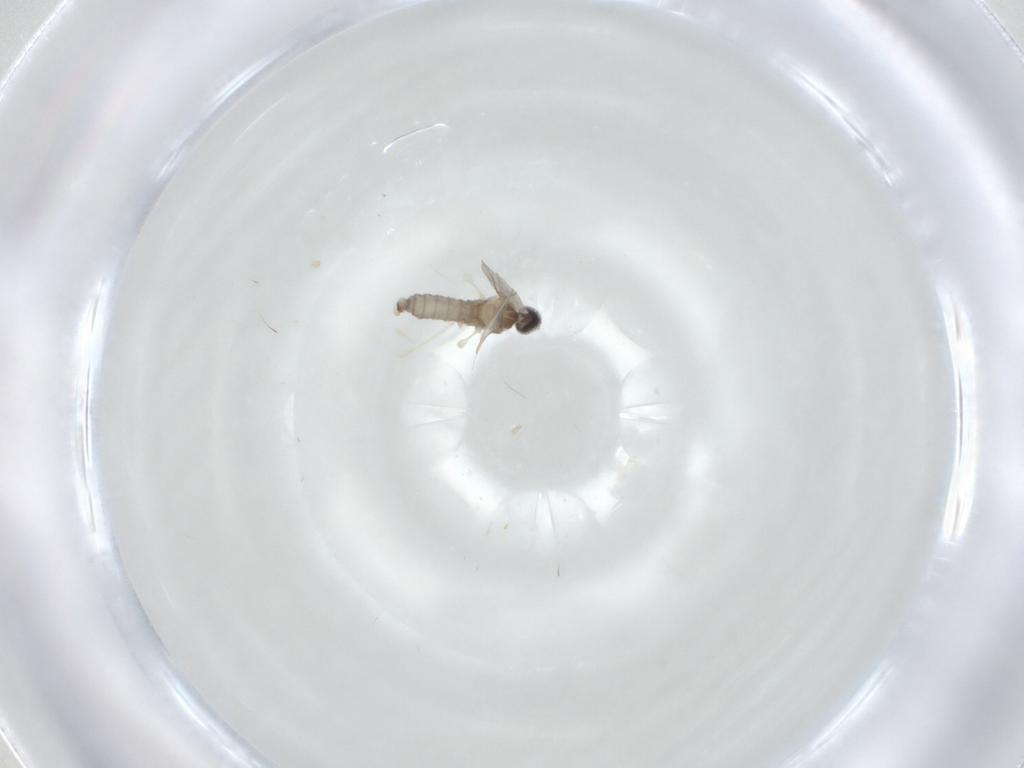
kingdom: Animalia
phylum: Arthropoda
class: Insecta
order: Diptera
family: Cecidomyiidae
